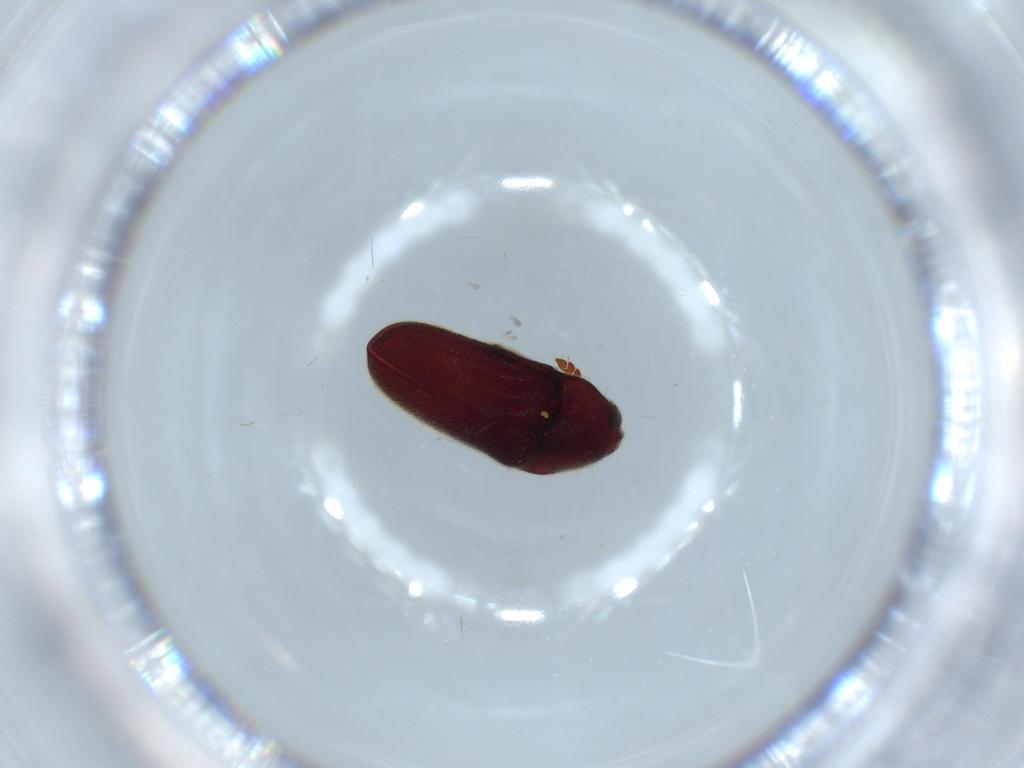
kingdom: Animalia
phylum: Arthropoda
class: Insecta
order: Coleoptera
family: Throscidae
